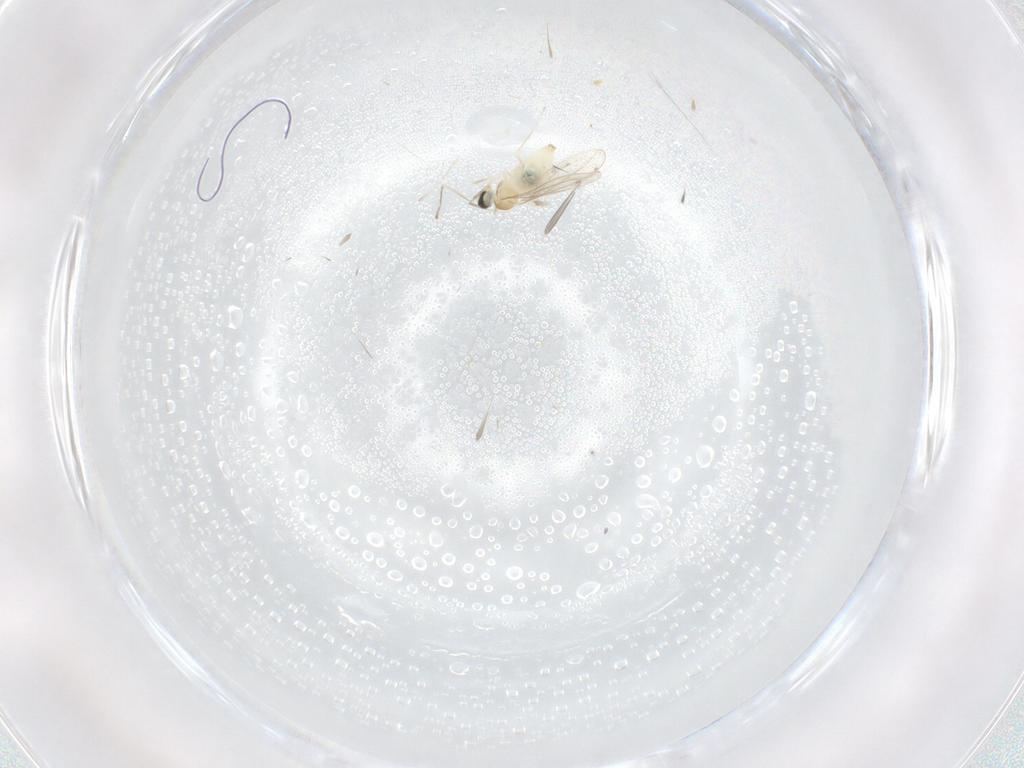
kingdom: Animalia
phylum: Arthropoda
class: Insecta
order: Diptera
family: Cecidomyiidae
